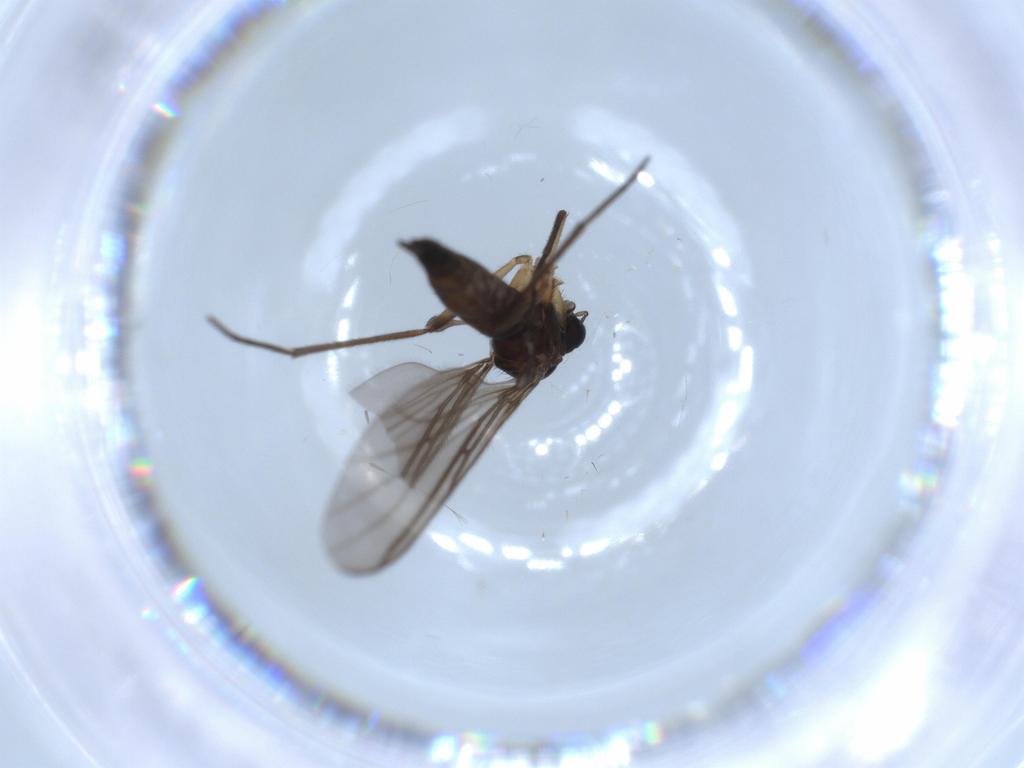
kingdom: Animalia
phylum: Arthropoda
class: Insecta
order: Diptera
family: Sciaridae
